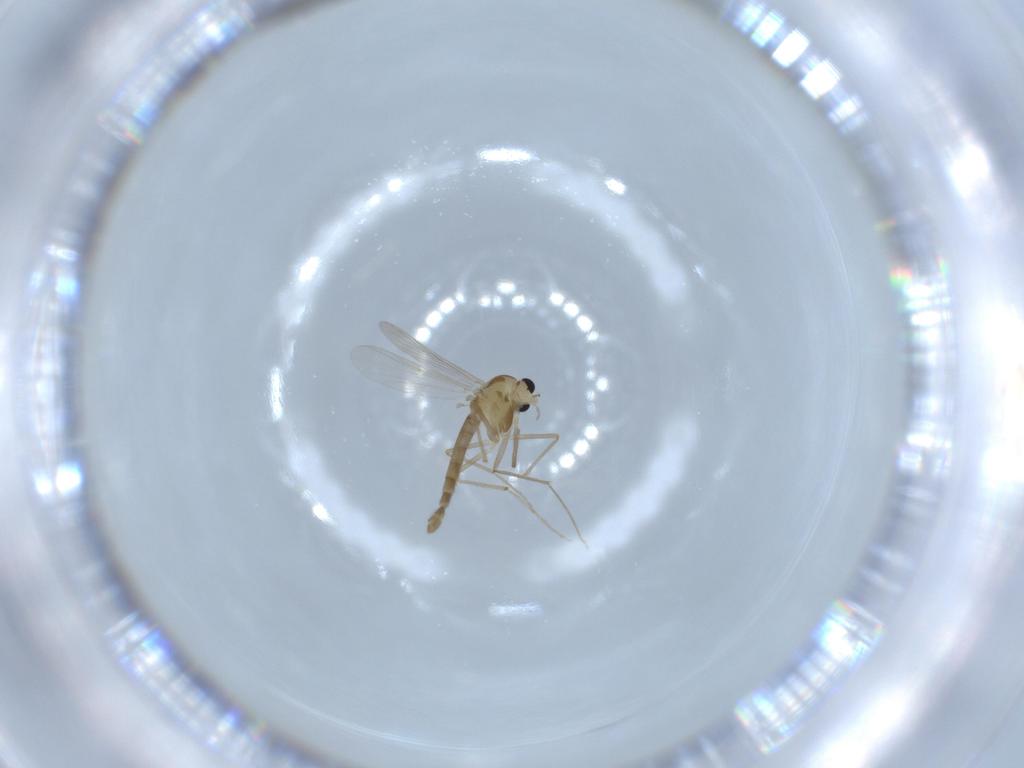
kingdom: Animalia
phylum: Arthropoda
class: Insecta
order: Diptera
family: Chironomidae
